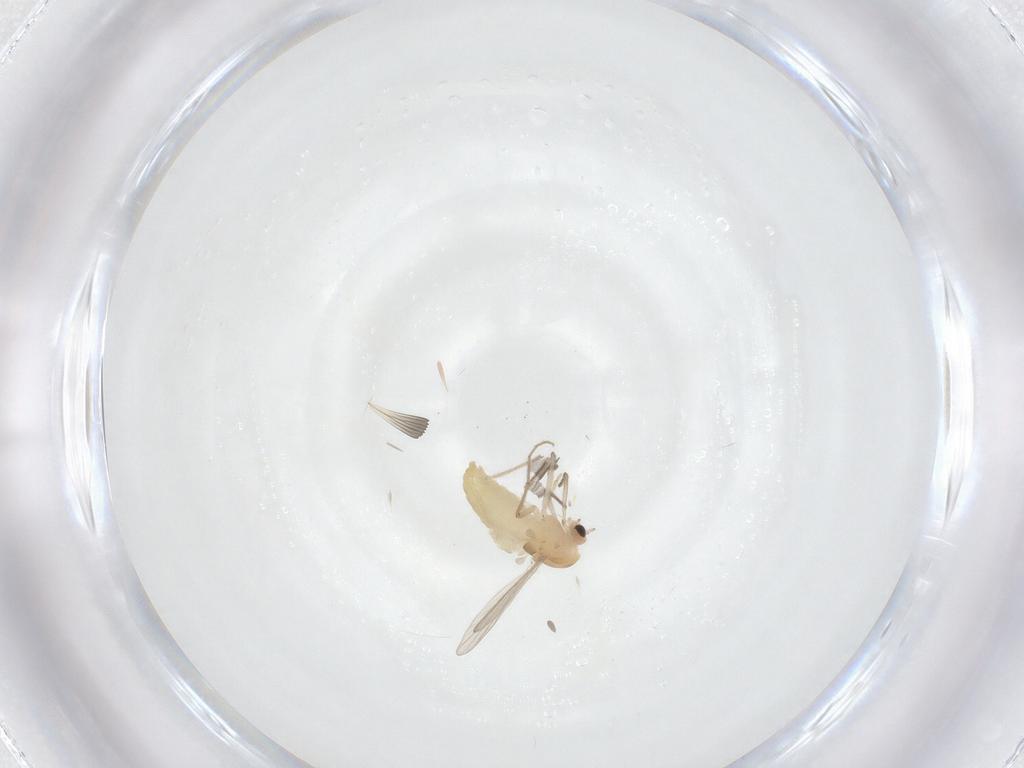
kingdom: Animalia
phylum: Arthropoda
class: Insecta
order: Diptera
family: Chironomidae
